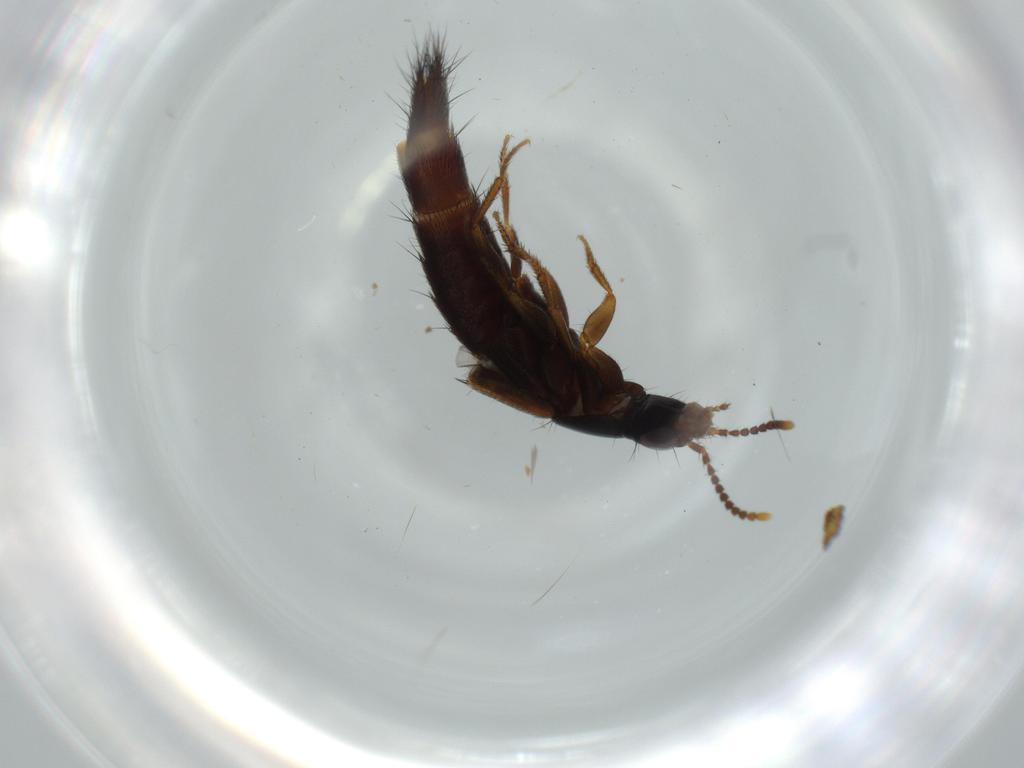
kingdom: Animalia
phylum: Arthropoda
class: Insecta
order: Coleoptera
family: Staphylinidae
